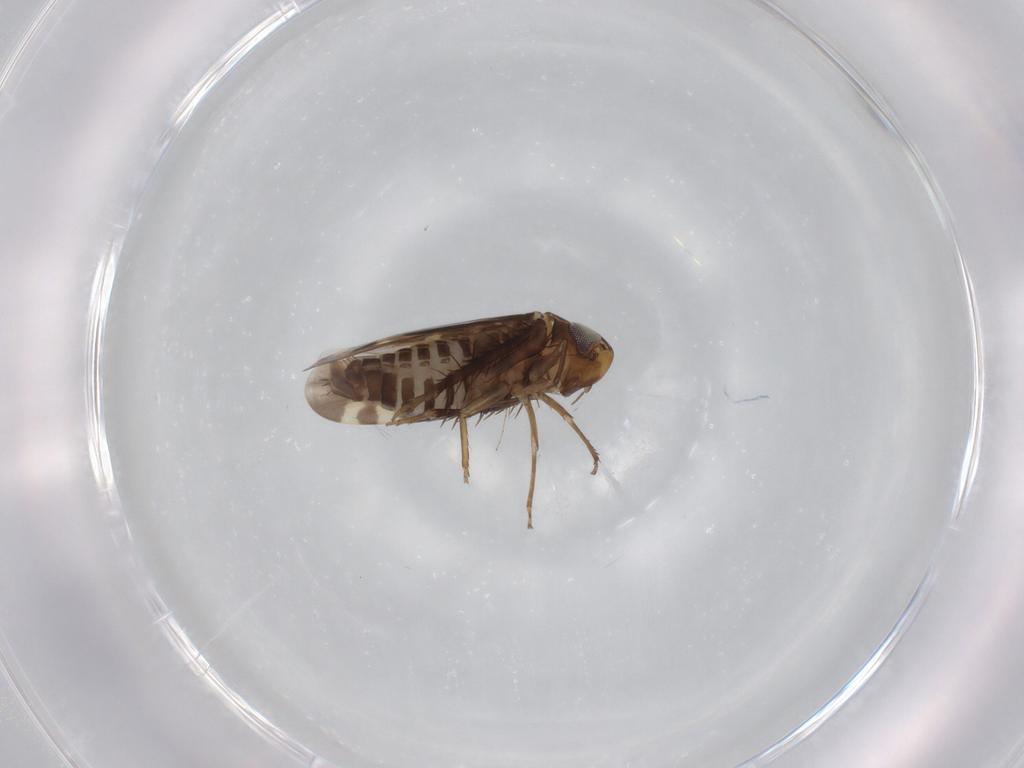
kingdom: Animalia
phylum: Arthropoda
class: Insecta
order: Hemiptera
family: Cicadellidae
